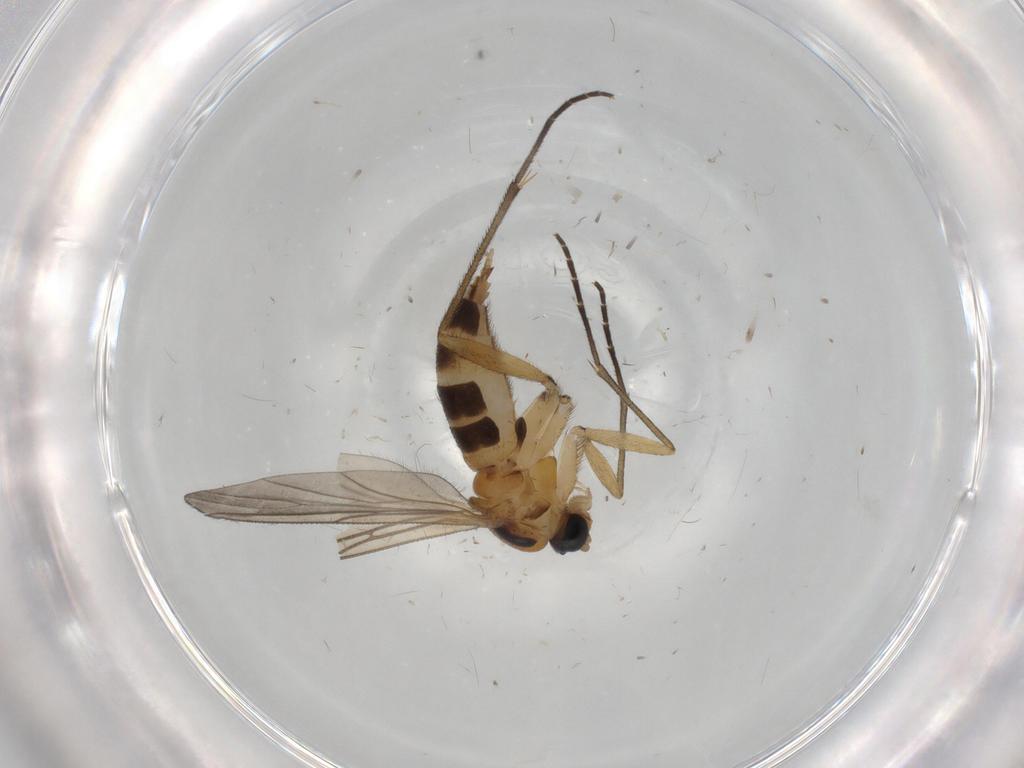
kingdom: Animalia
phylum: Arthropoda
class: Insecta
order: Diptera
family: Sciaridae
